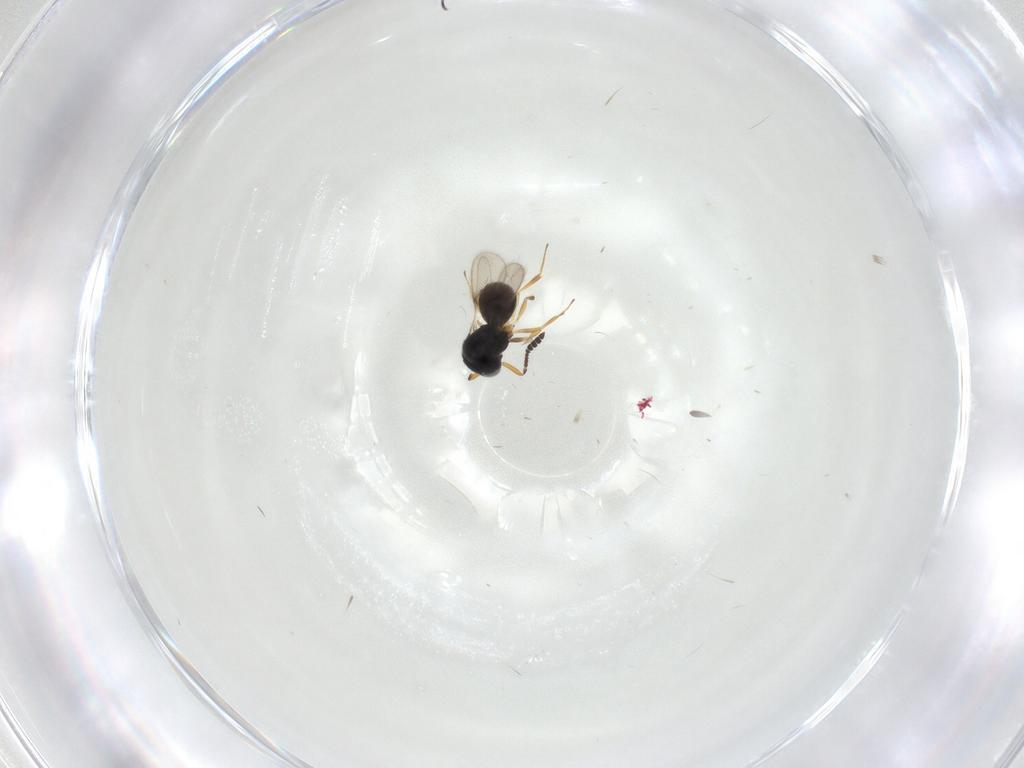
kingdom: Animalia
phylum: Arthropoda
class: Insecta
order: Hymenoptera
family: Scelionidae
